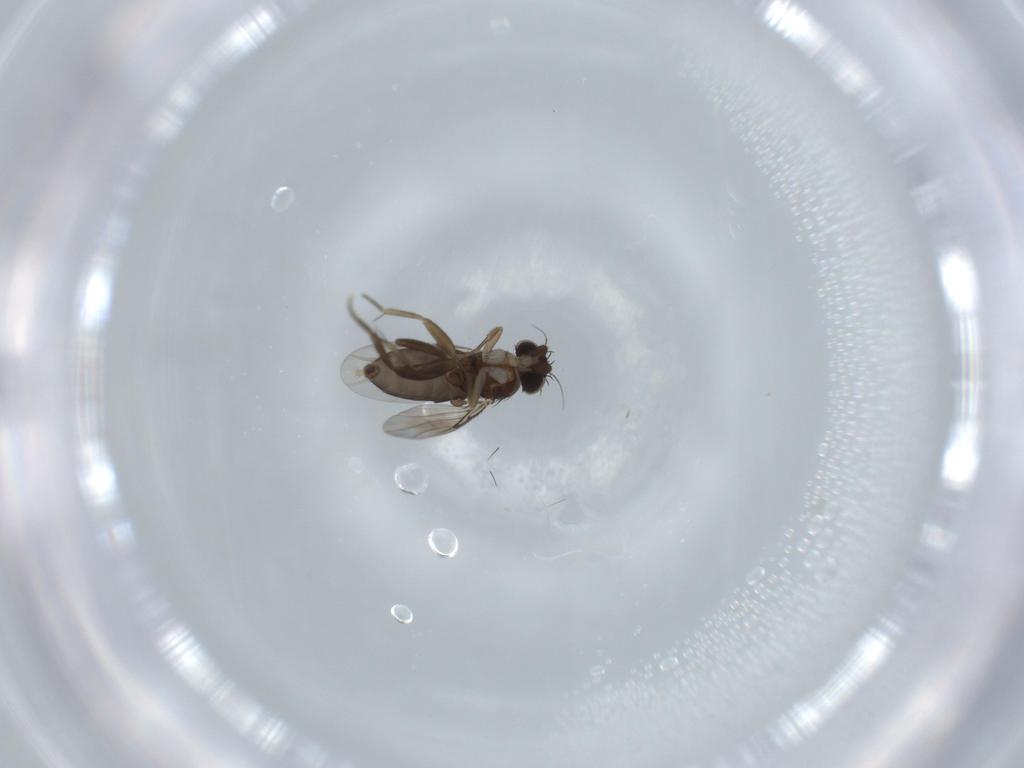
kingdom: Animalia
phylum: Arthropoda
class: Insecta
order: Diptera
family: Phoridae
